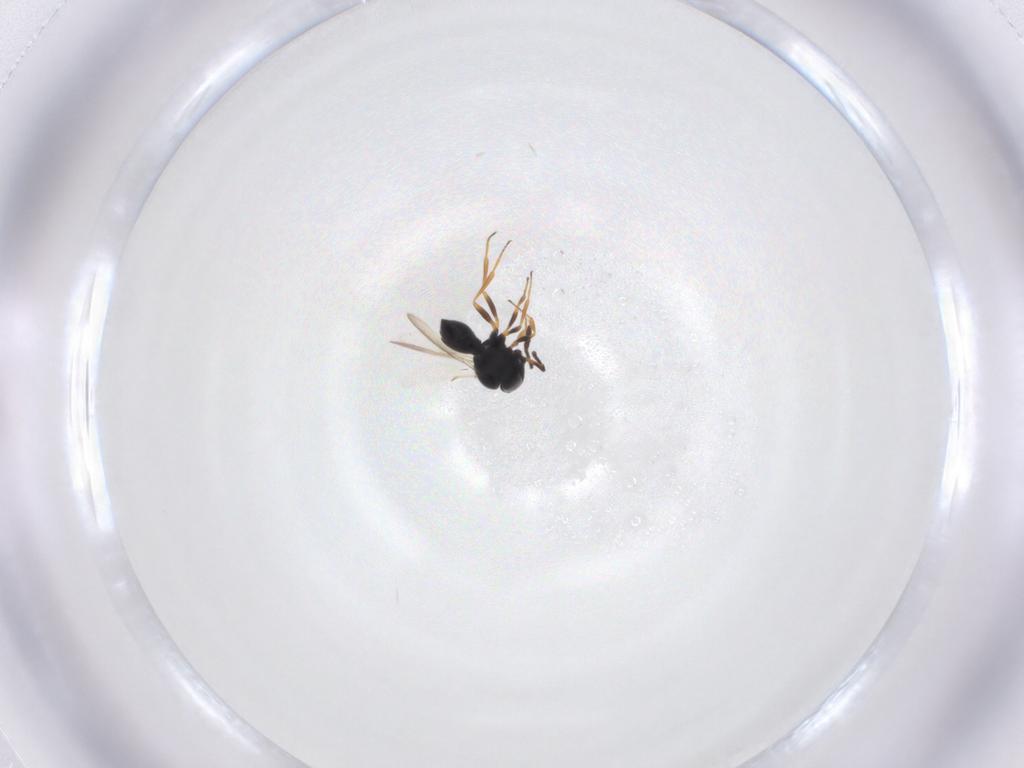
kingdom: Animalia
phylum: Arthropoda
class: Insecta
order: Hymenoptera
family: Scelionidae
